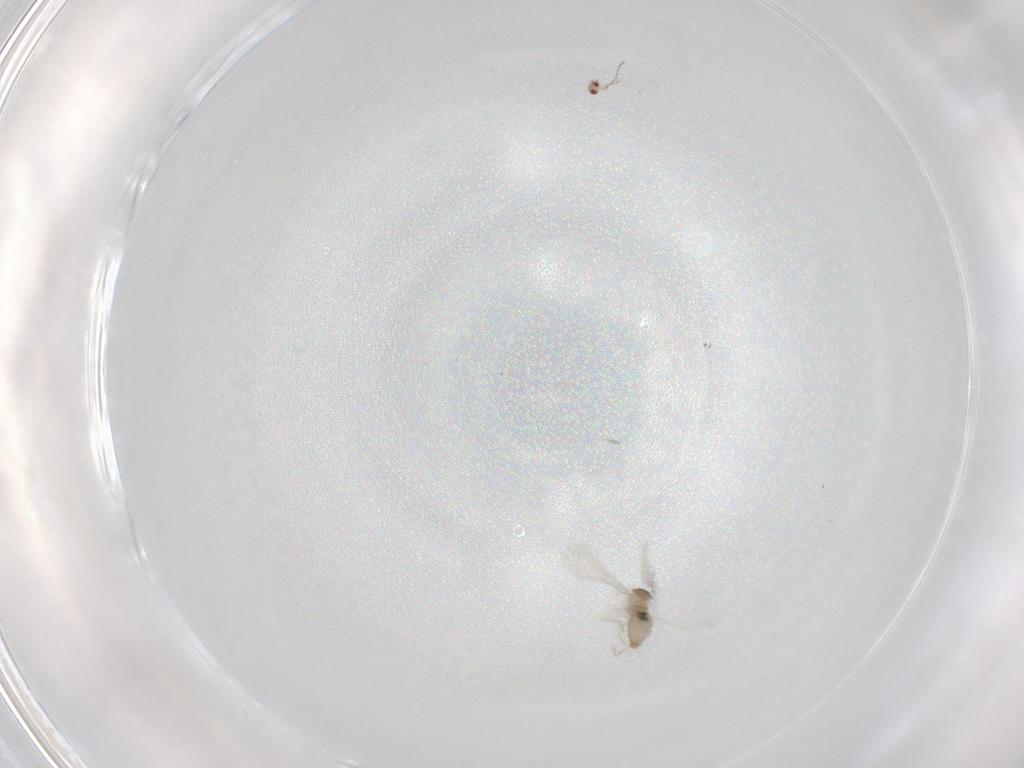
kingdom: Animalia
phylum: Arthropoda
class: Insecta
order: Diptera
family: Cecidomyiidae
